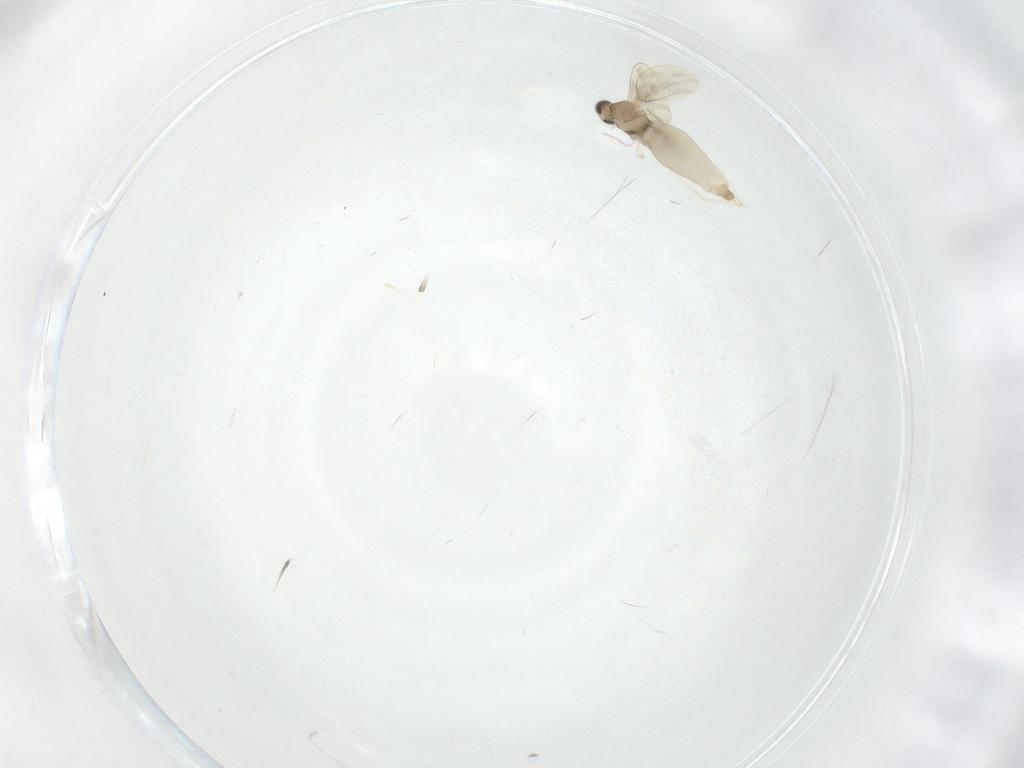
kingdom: Animalia
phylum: Arthropoda
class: Insecta
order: Diptera
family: Cecidomyiidae
